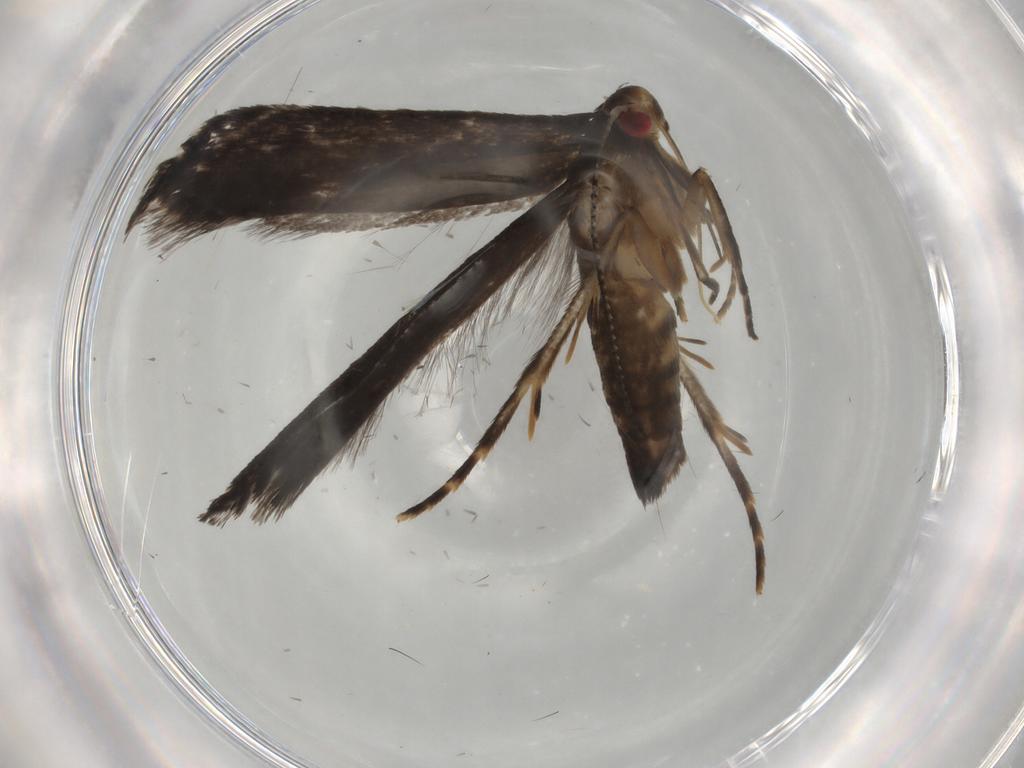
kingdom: Animalia
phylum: Arthropoda
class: Insecta
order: Lepidoptera
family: Gelechiidae
